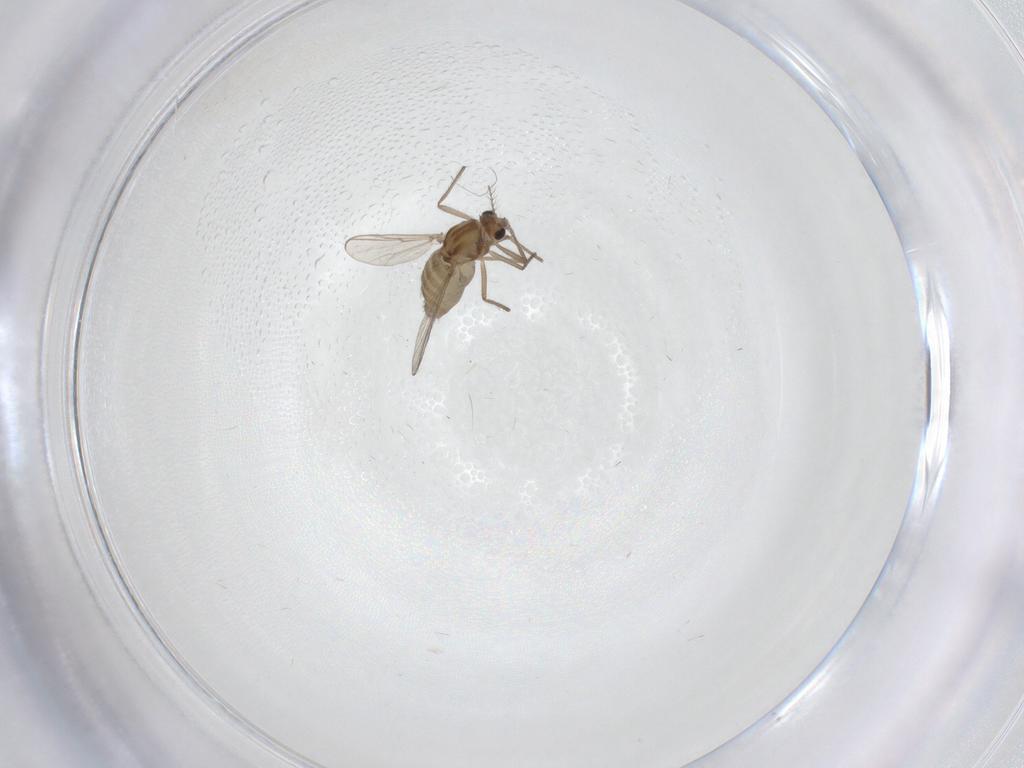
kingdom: Animalia
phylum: Arthropoda
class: Insecta
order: Diptera
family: Chironomidae
